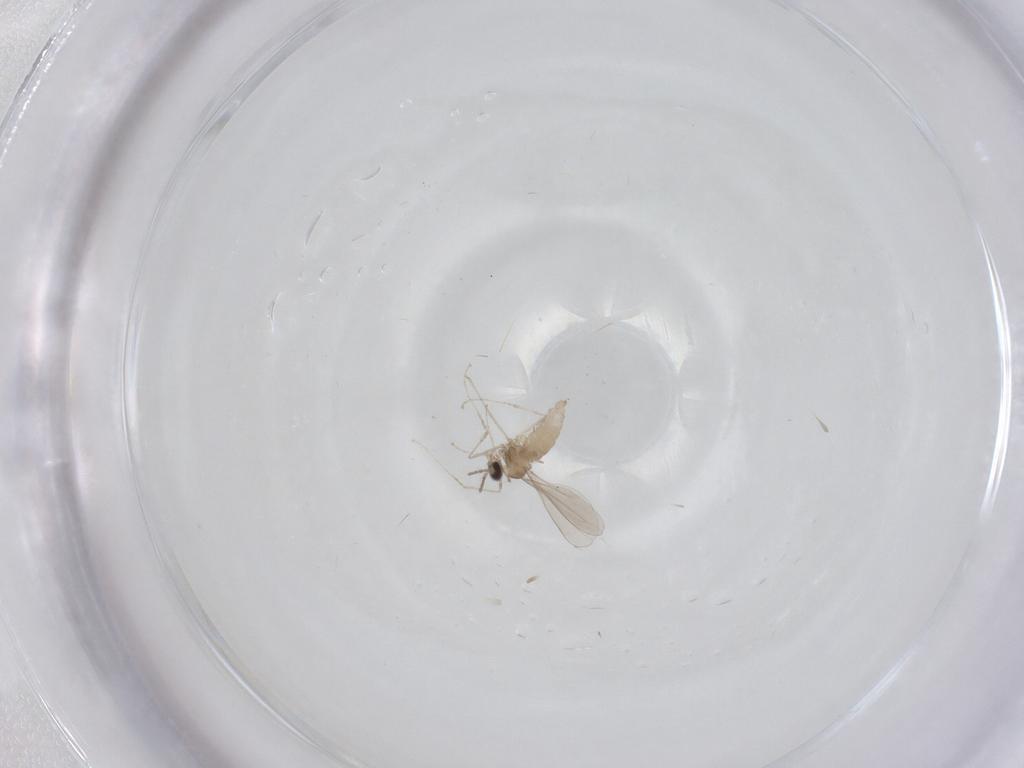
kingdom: Animalia
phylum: Arthropoda
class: Insecta
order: Diptera
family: Cecidomyiidae
